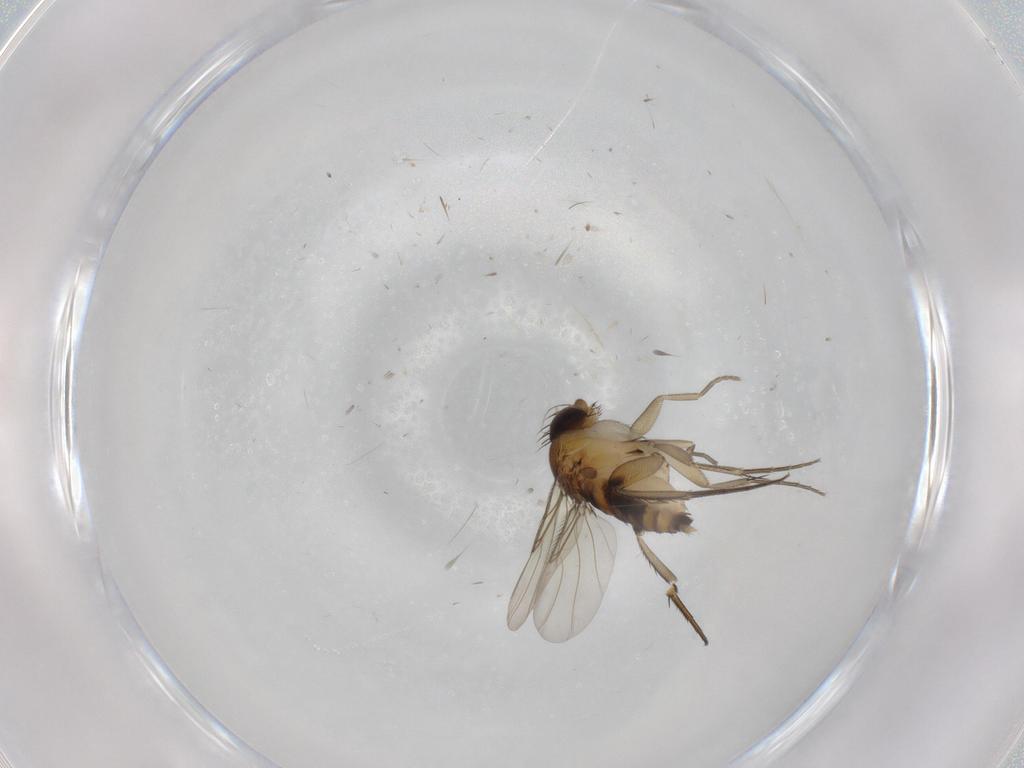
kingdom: Animalia
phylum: Arthropoda
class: Insecta
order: Diptera
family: Phoridae
